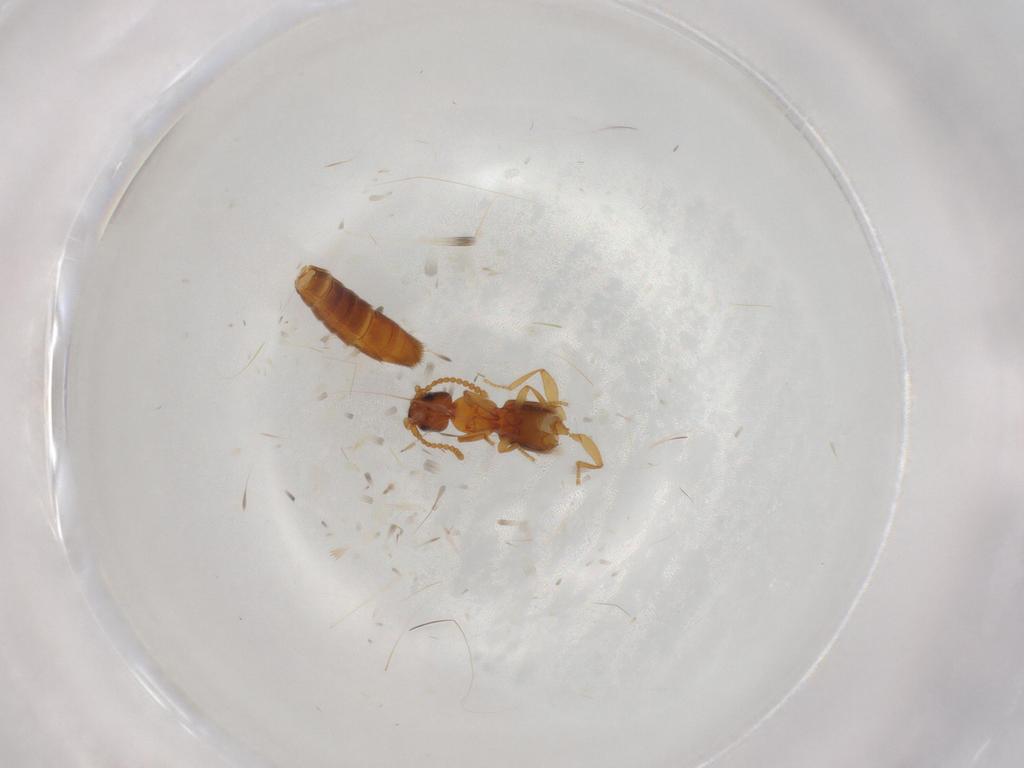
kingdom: Animalia
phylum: Arthropoda
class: Insecta
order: Coleoptera
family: Staphylinidae
